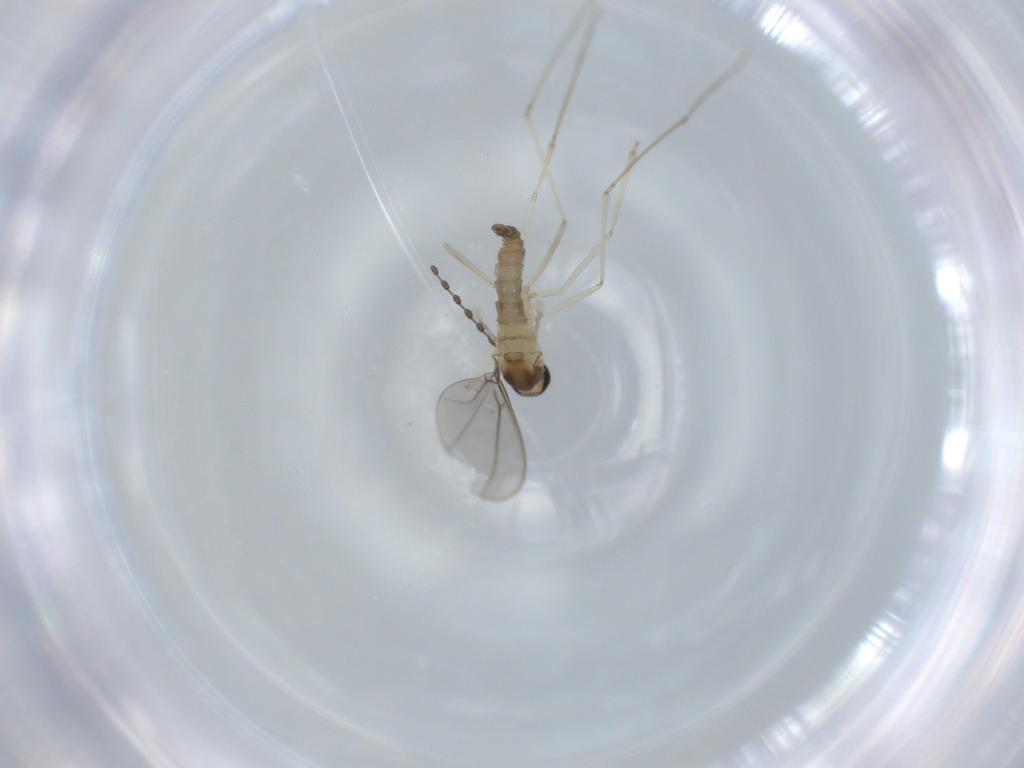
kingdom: Animalia
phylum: Arthropoda
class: Insecta
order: Diptera
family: Cecidomyiidae
